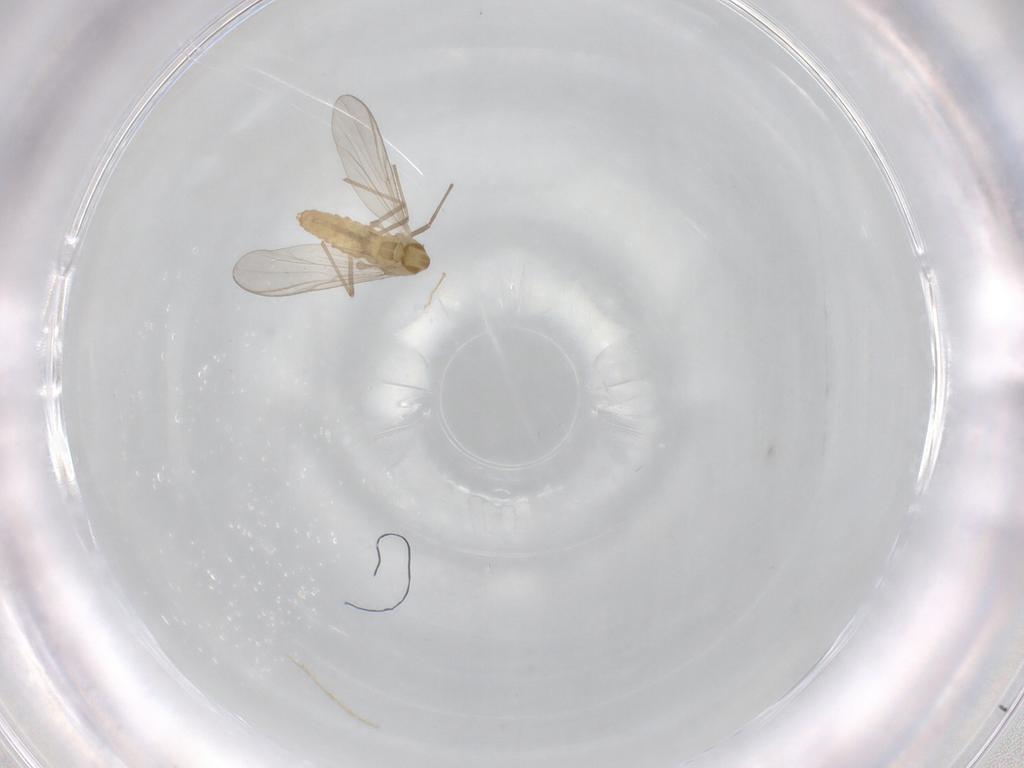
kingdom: Animalia
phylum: Arthropoda
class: Insecta
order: Diptera
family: Chironomidae
